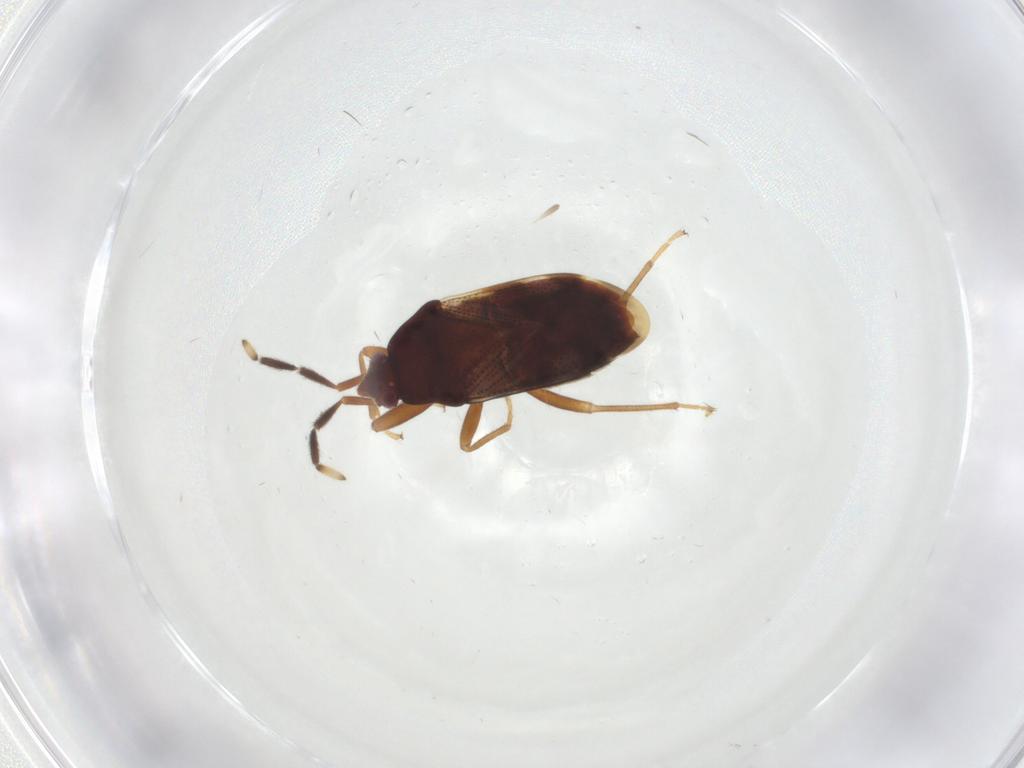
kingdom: Animalia
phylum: Arthropoda
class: Insecta
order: Hemiptera
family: Rhyparochromidae
